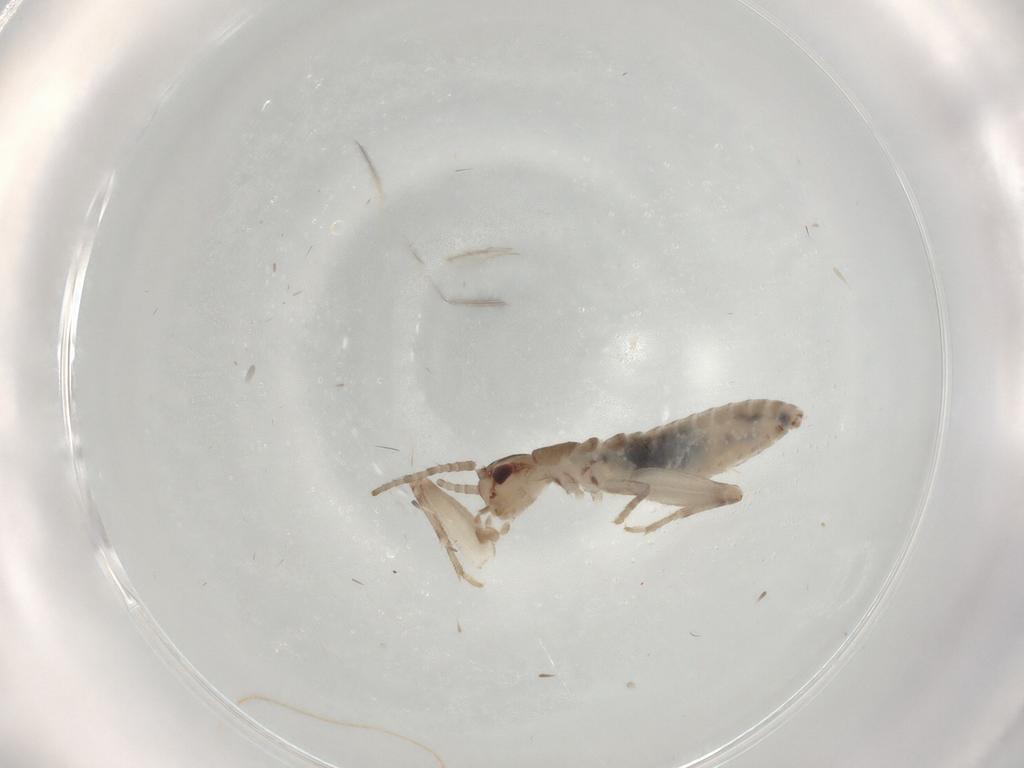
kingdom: Animalia
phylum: Arthropoda
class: Insecta
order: Orthoptera
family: Mogoplistidae
